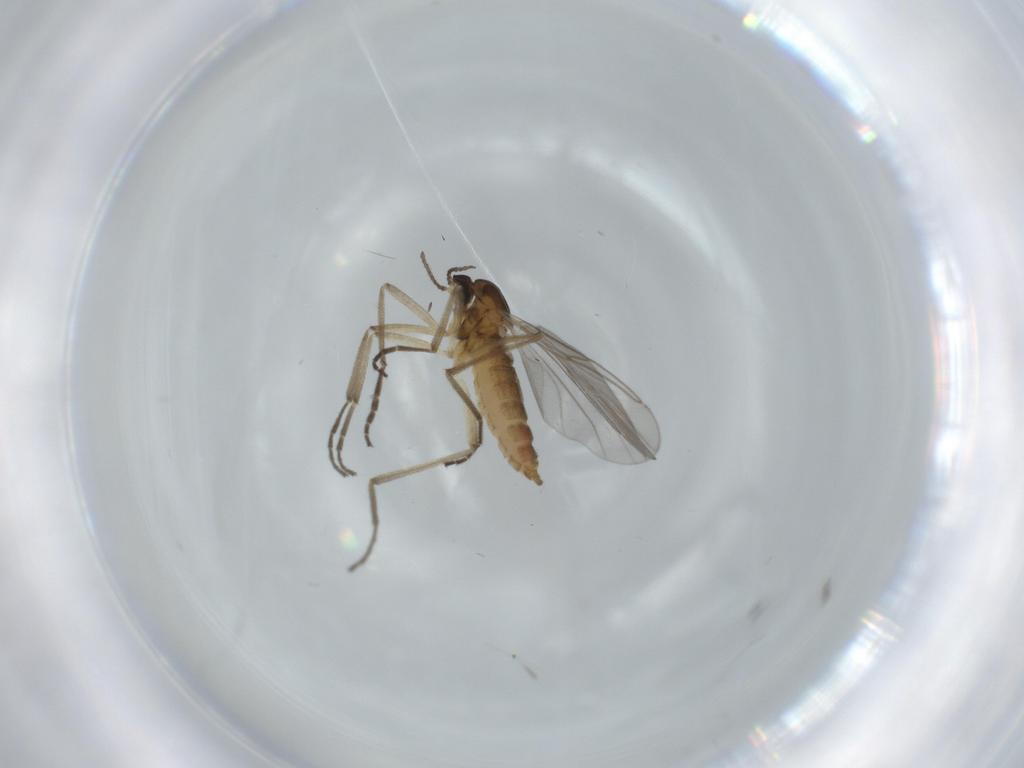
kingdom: Animalia
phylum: Arthropoda
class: Insecta
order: Diptera
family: Cecidomyiidae
